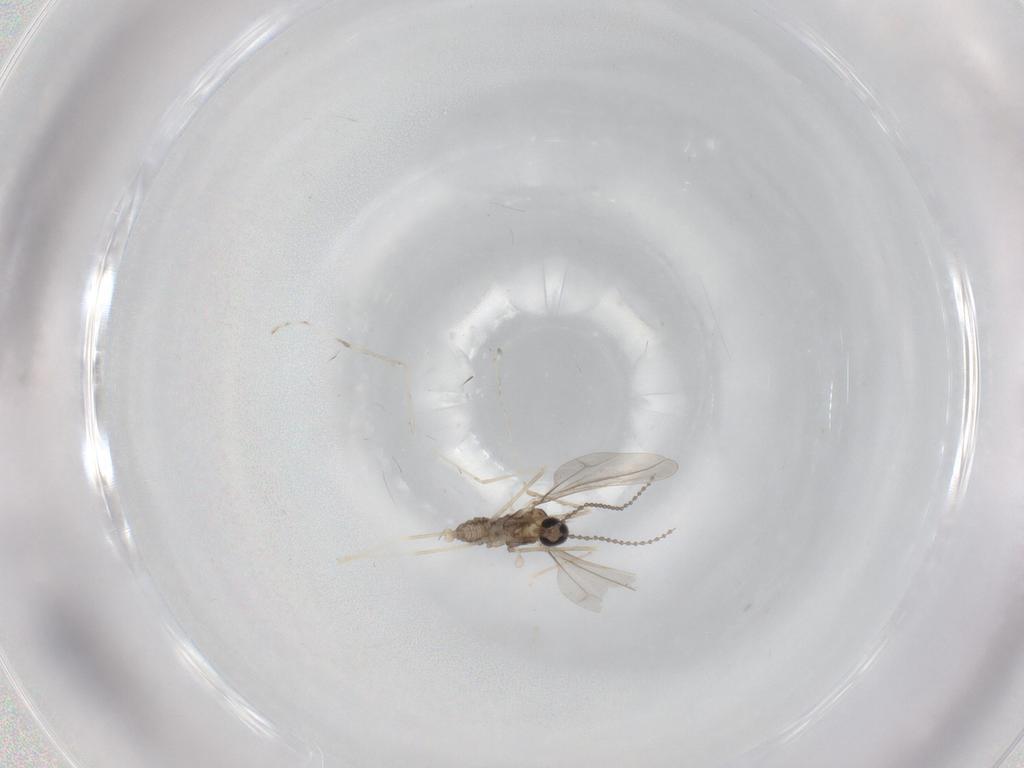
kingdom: Animalia
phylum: Arthropoda
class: Insecta
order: Diptera
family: Cecidomyiidae
